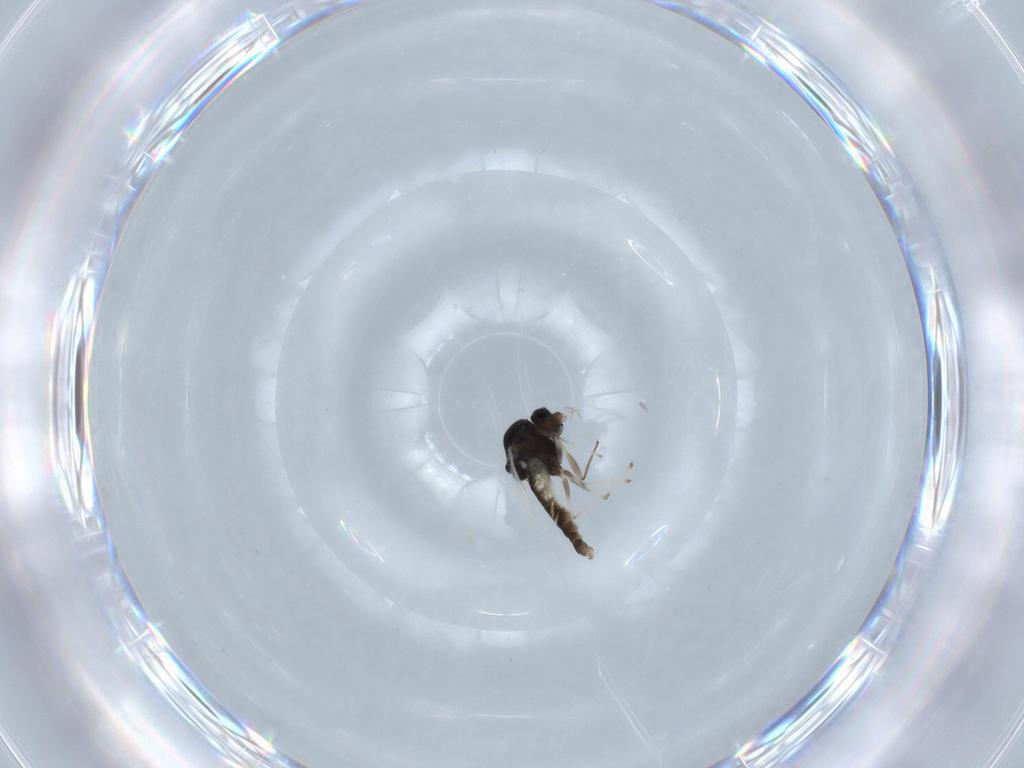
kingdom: Animalia
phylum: Arthropoda
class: Insecta
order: Diptera
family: Chironomidae
